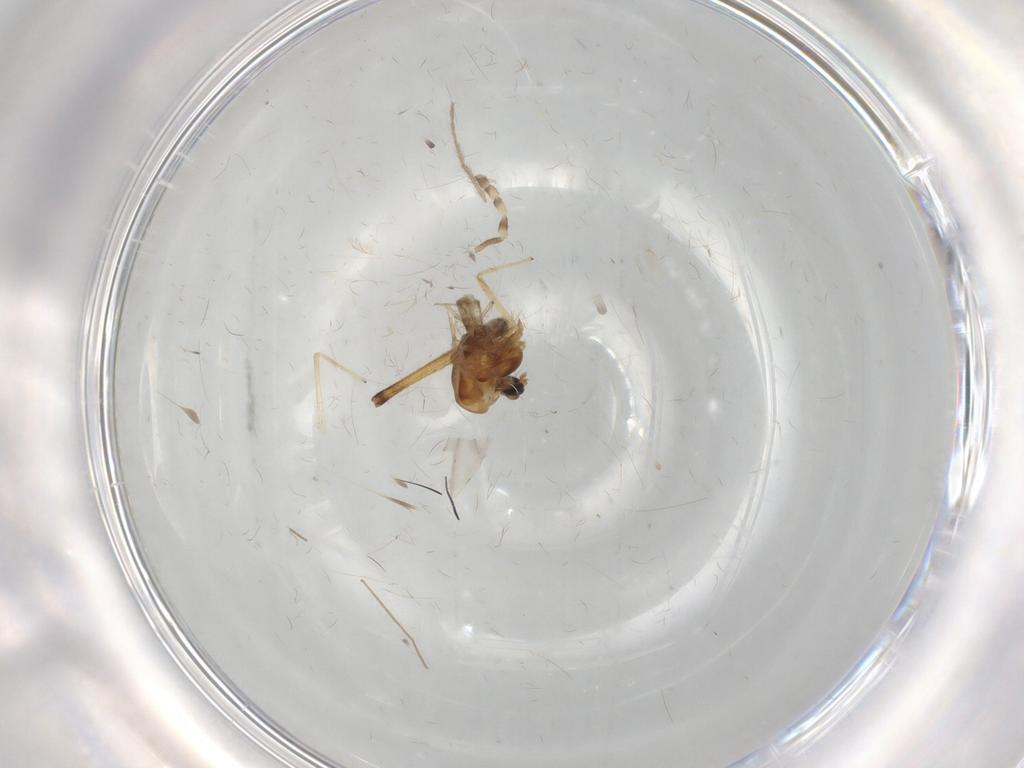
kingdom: Animalia
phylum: Arthropoda
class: Insecta
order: Diptera
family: Chironomidae
